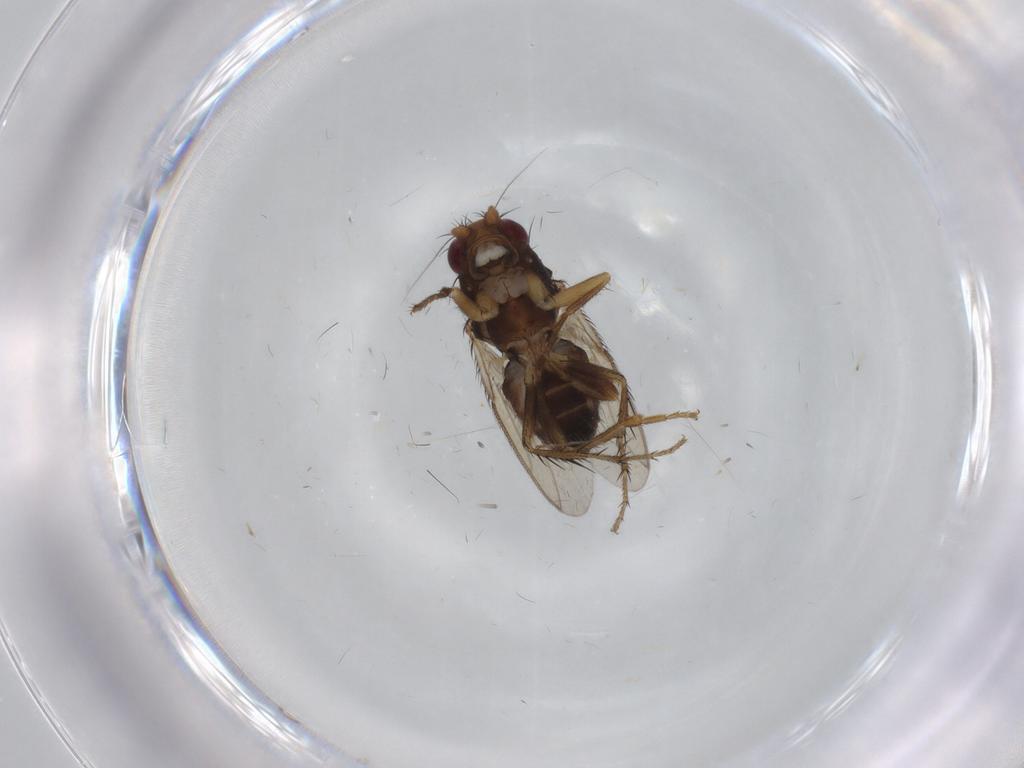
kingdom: Animalia
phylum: Arthropoda
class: Insecta
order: Diptera
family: Sphaeroceridae
